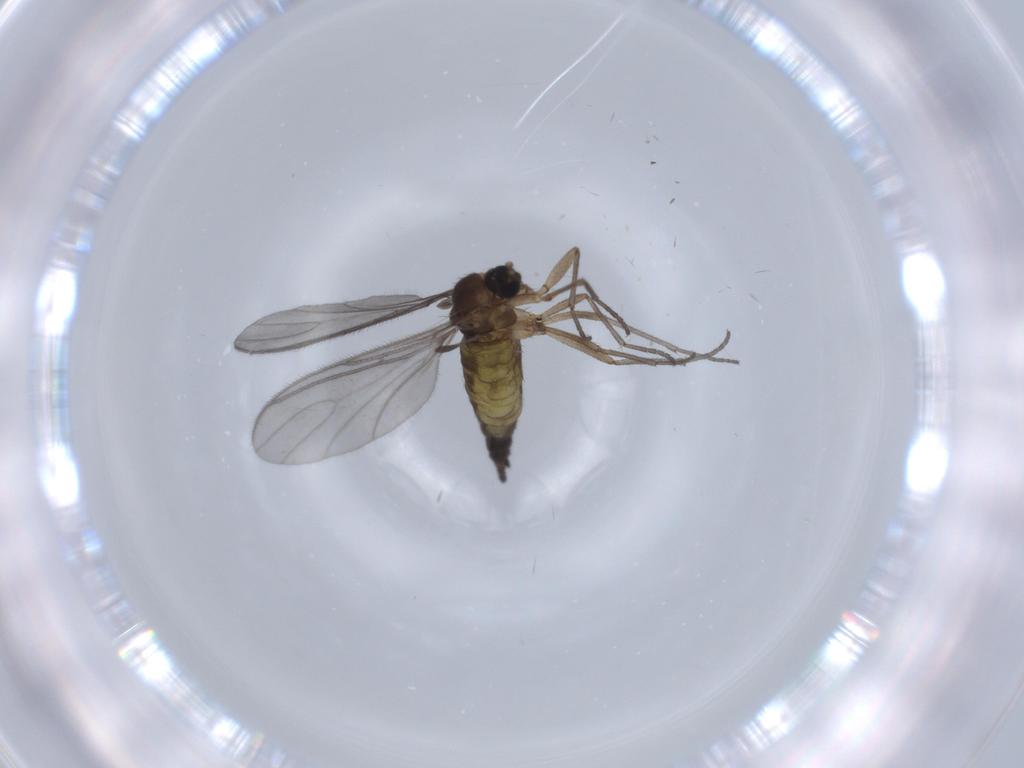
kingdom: Animalia
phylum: Arthropoda
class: Insecta
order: Diptera
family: Sciaridae
